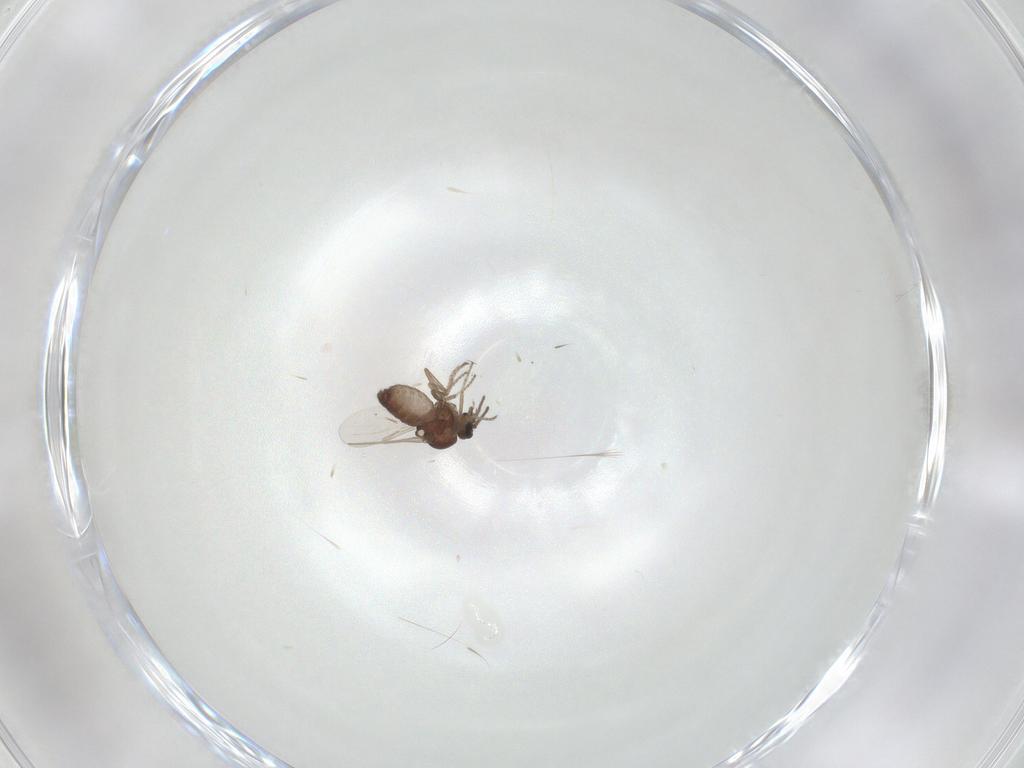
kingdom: Animalia
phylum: Arthropoda
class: Insecta
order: Diptera
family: Ceratopogonidae
